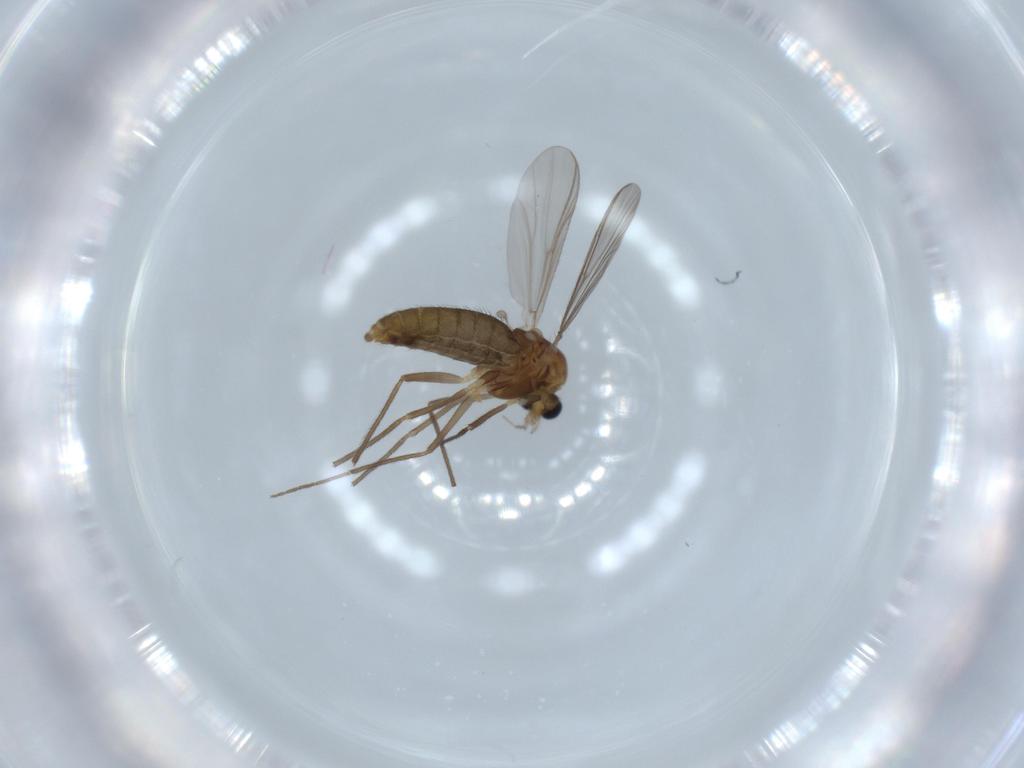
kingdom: Animalia
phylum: Arthropoda
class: Insecta
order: Diptera
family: Chironomidae
